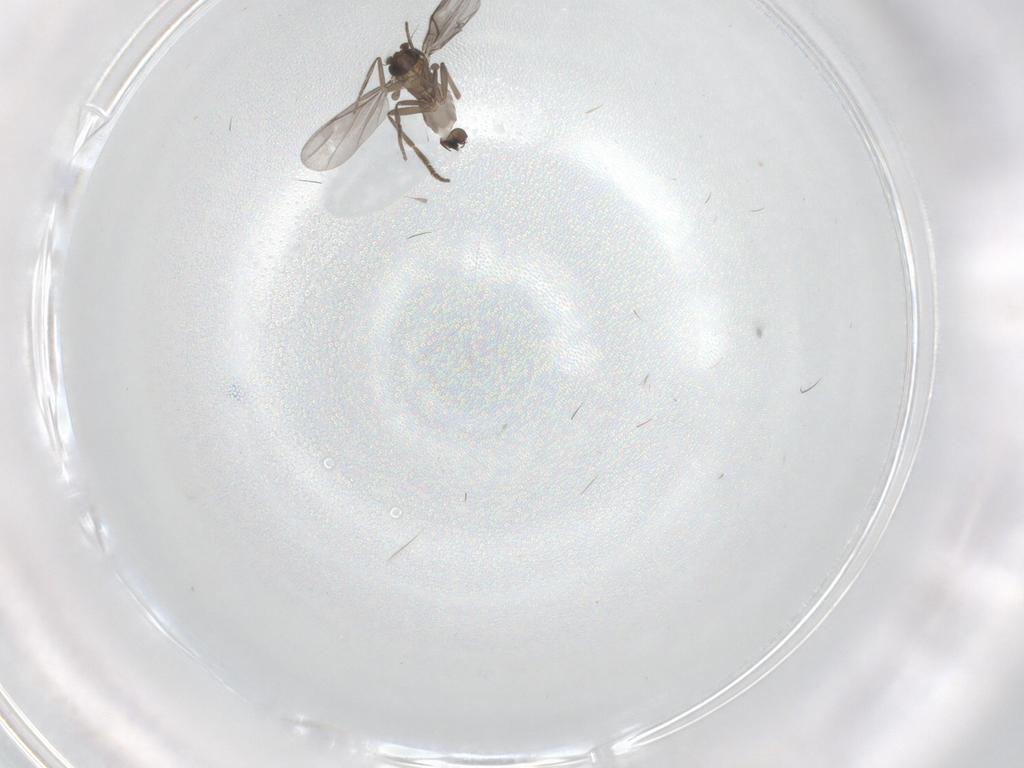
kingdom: Animalia
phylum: Arthropoda
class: Insecta
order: Diptera
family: Phoridae
